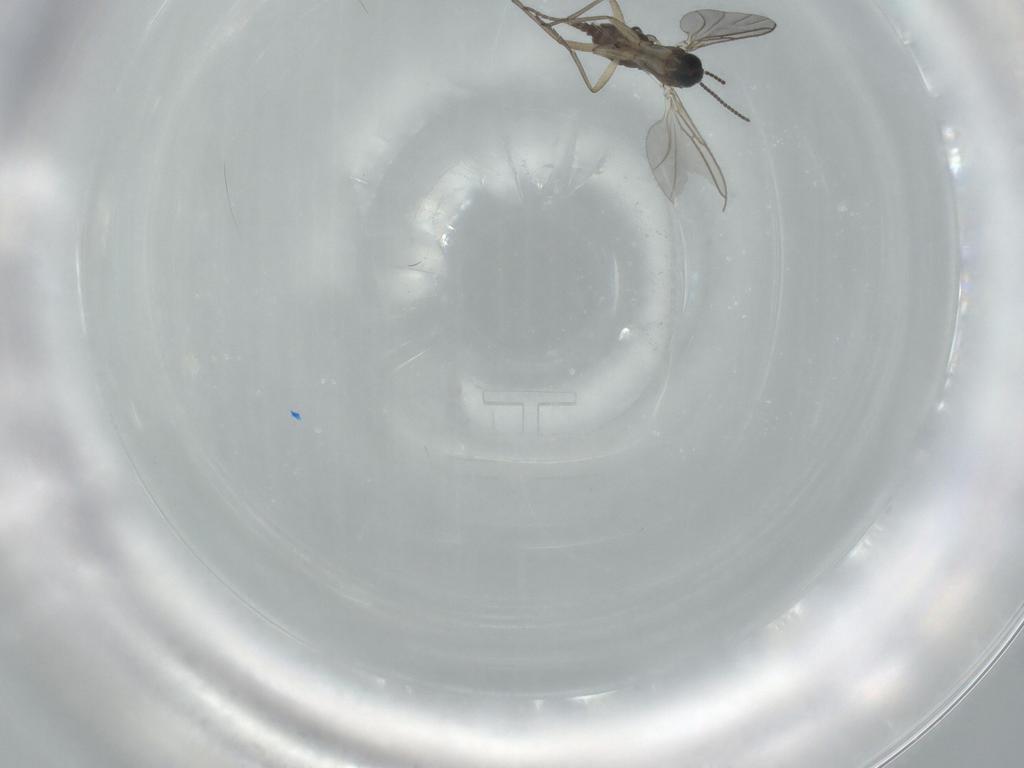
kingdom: Animalia
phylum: Arthropoda
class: Insecta
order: Diptera
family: Sciaridae
